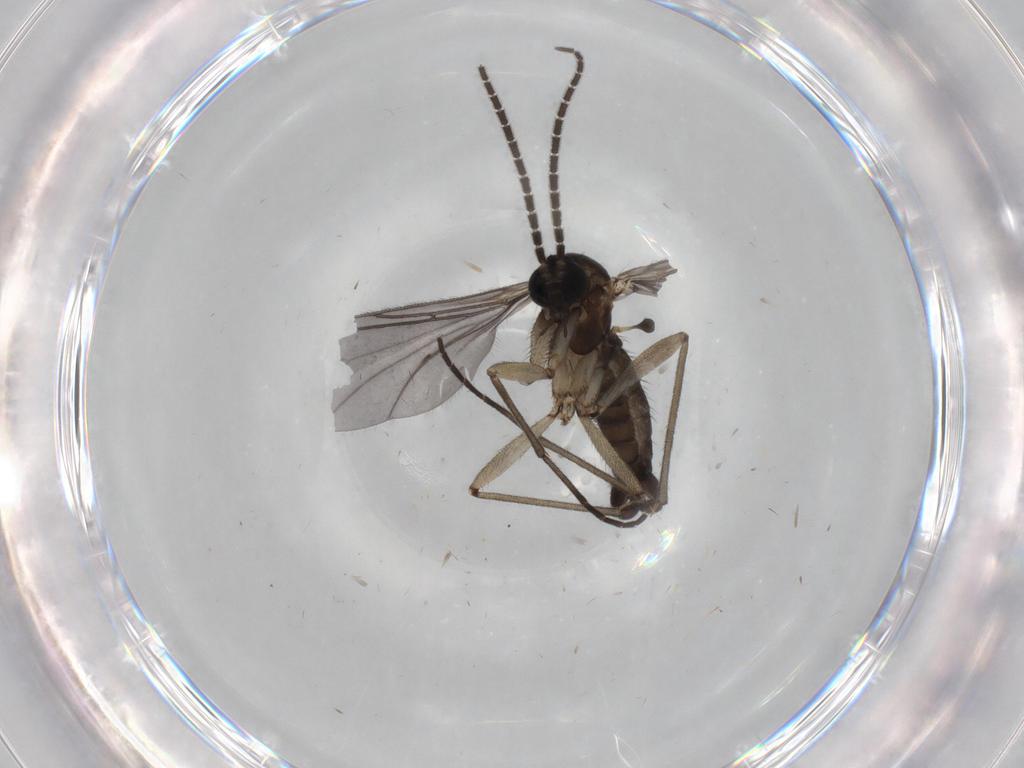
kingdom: Animalia
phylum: Arthropoda
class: Insecta
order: Diptera
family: Sciaridae
